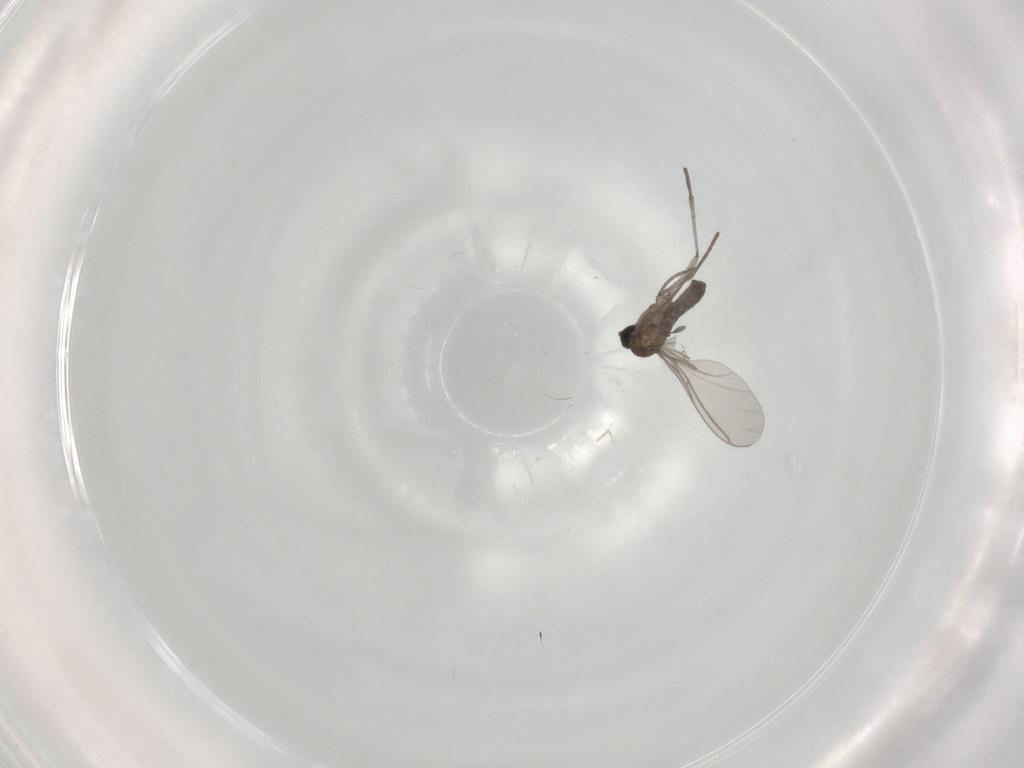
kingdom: Animalia
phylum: Arthropoda
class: Insecta
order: Diptera
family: Sciaridae
